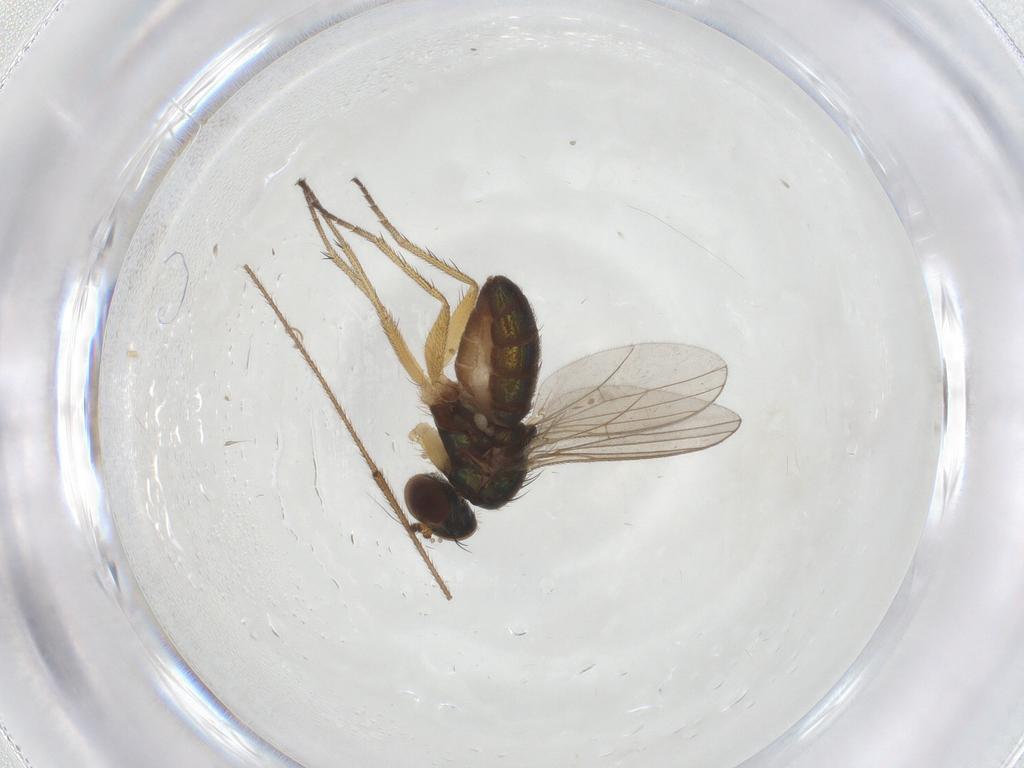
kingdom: Animalia
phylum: Arthropoda
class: Insecta
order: Diptera
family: Limoniidae
